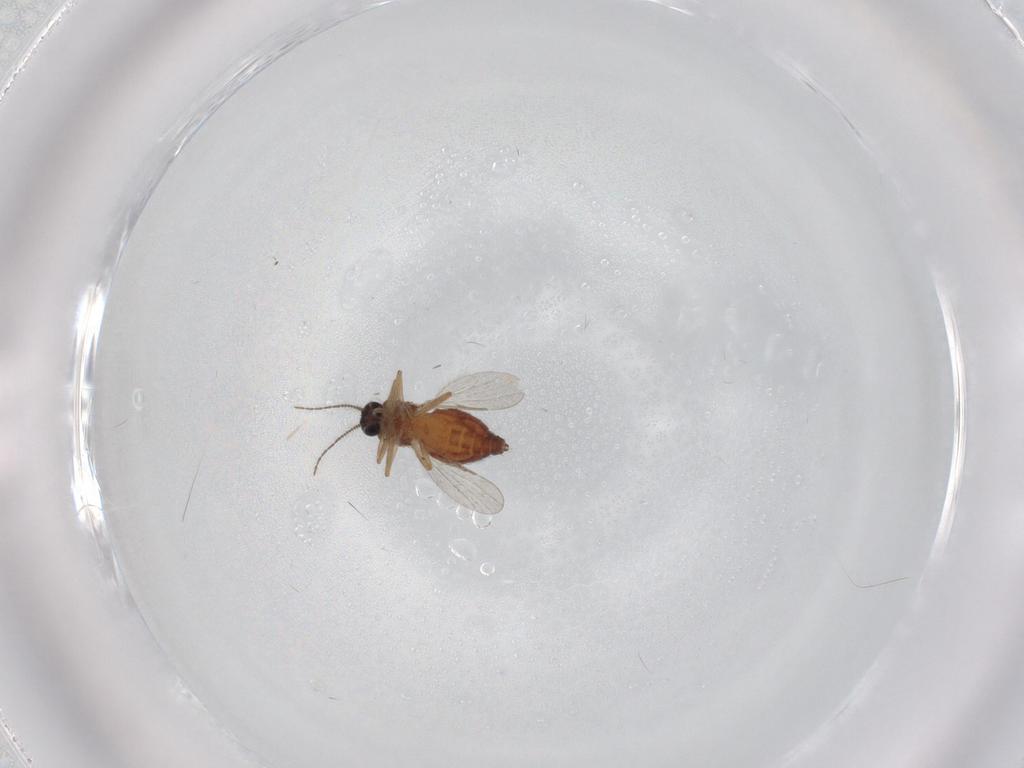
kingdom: Animalia
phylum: Arthropoda
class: Insecta
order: Diptera
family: Ceratopogonidae
